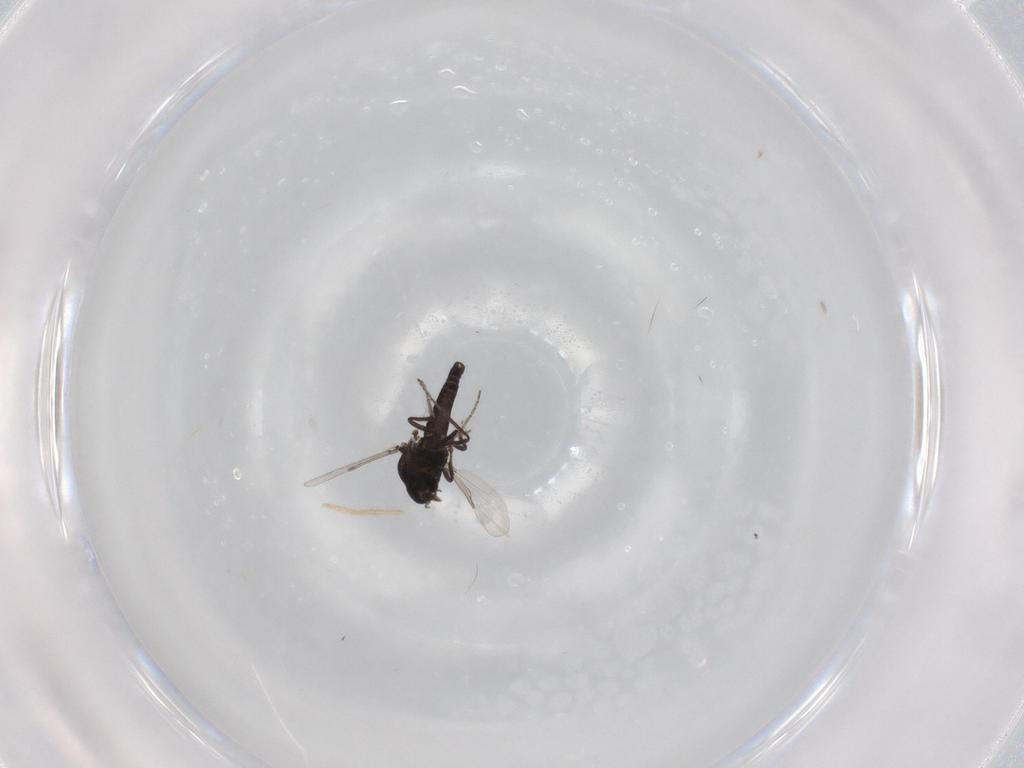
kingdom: Animalia
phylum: Arthropoda
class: Insecta
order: Diptera
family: Ceratopogonidae
